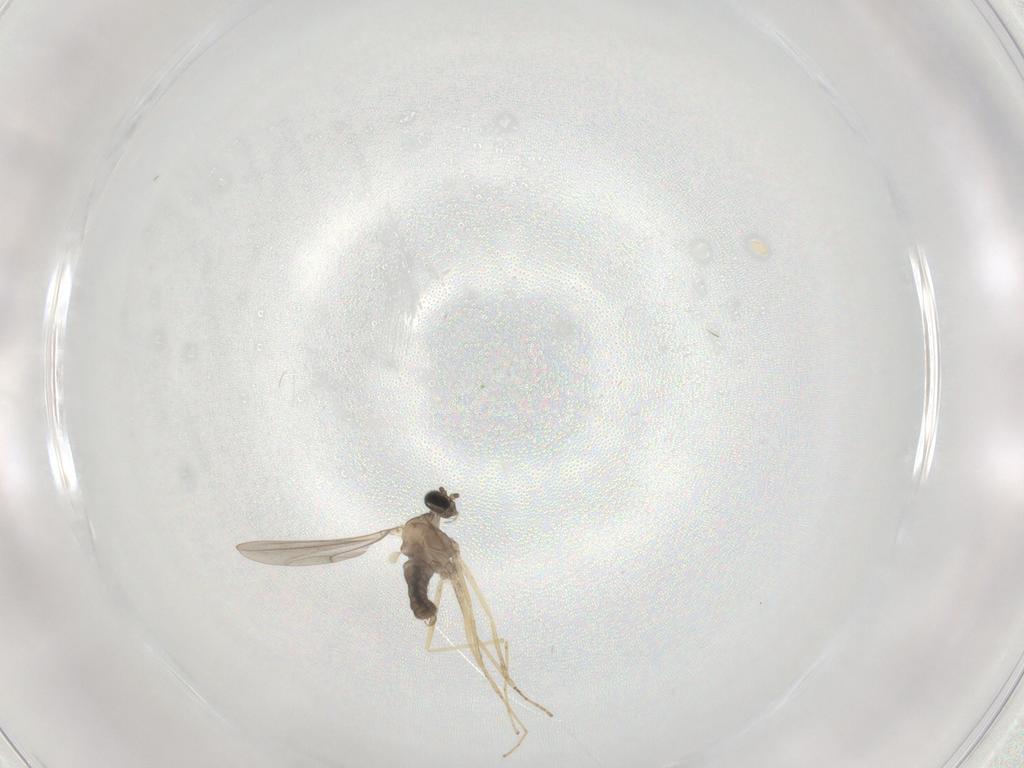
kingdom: Animalia
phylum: Arthropoda
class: Insecta
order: Diptera
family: Cecidomyiidae
